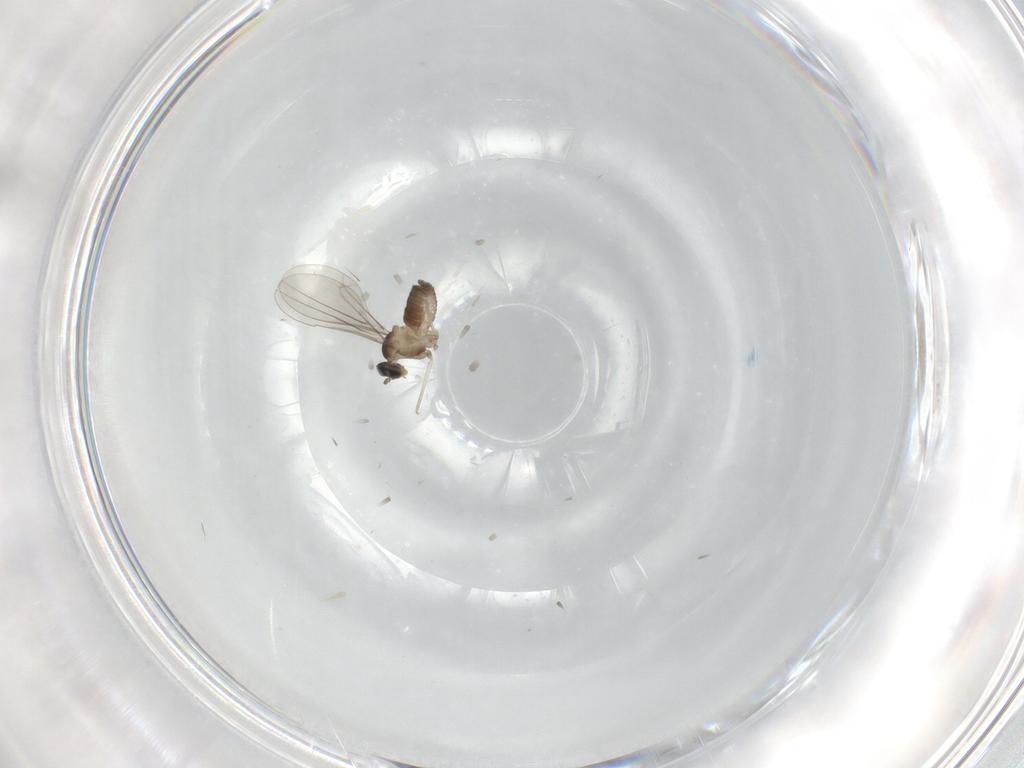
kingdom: Animalia
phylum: Arthropoda
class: Insecta
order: Diptera
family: Cecidomyiidae
